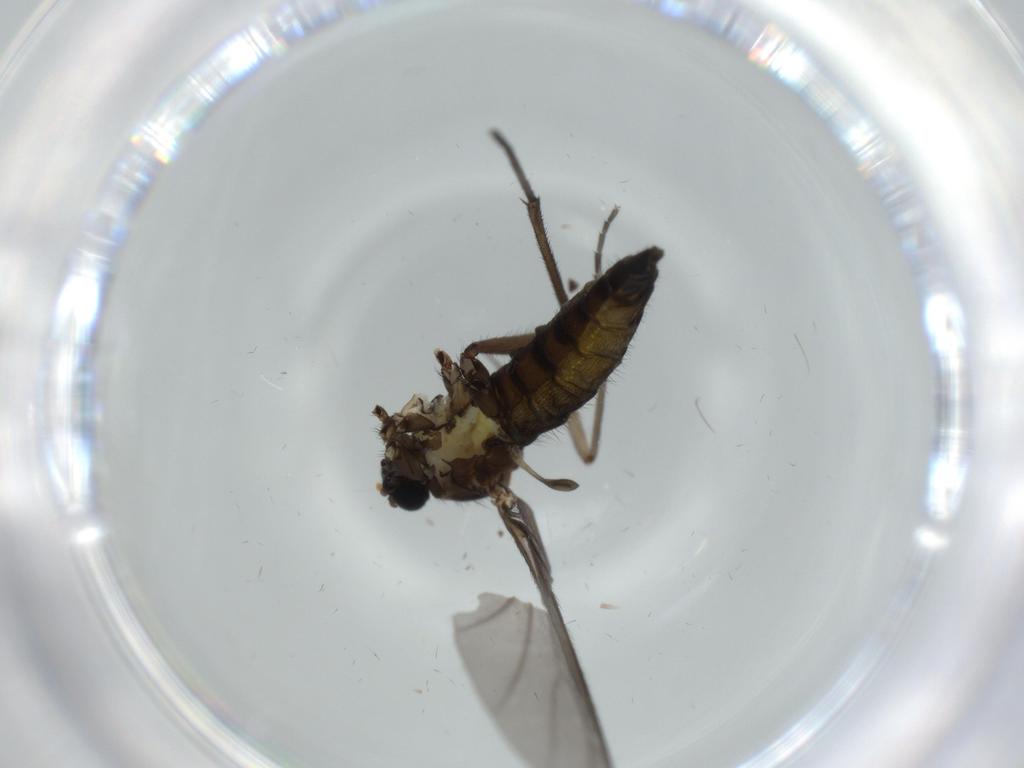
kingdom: Animalia
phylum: Arthropoda
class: Insecta
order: Diptera
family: Sciaridae
